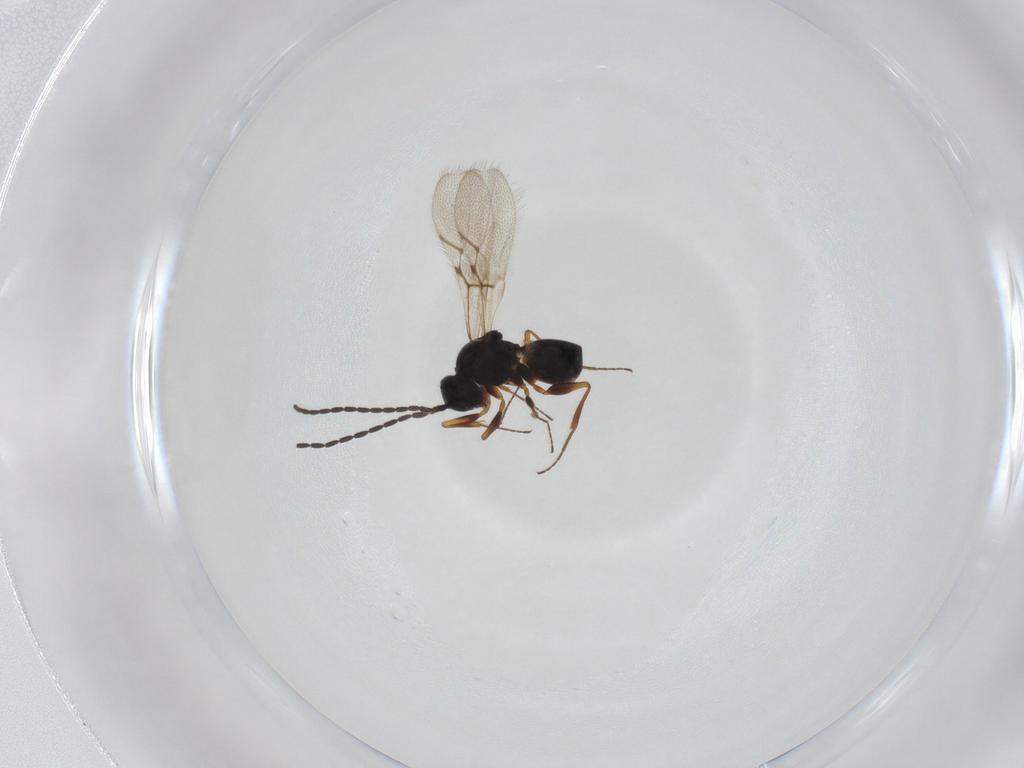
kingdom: Animalia
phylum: Arthropoda
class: Insecta
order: Hymenoptera
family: Figitidae
